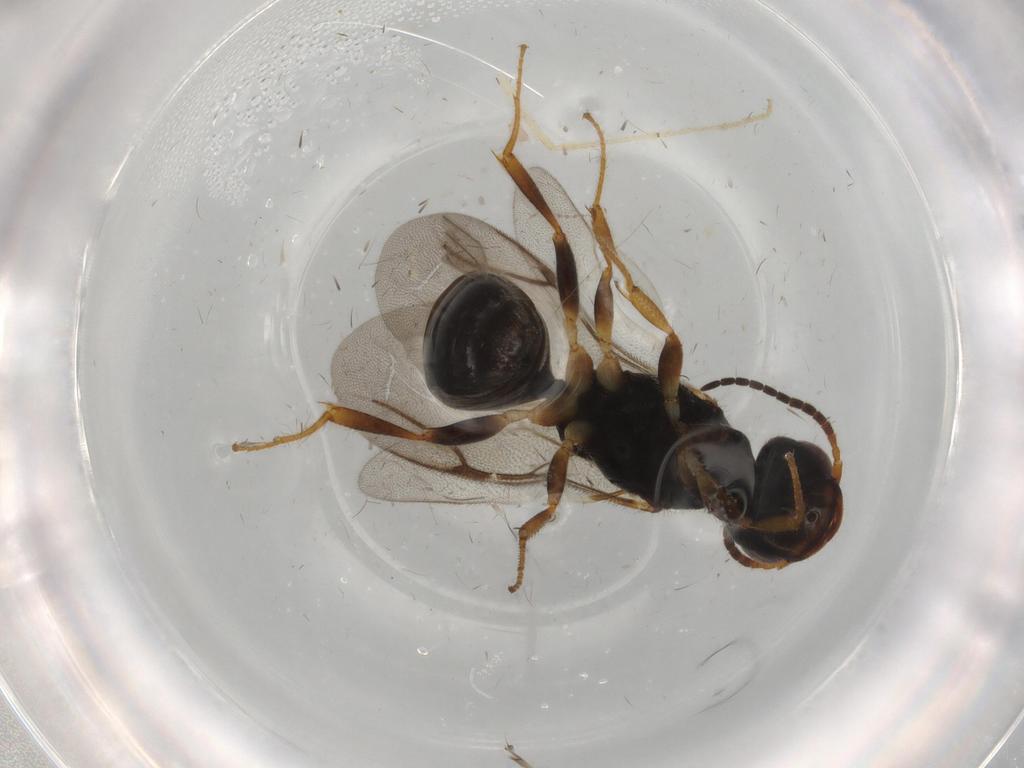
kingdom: Animalia
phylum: Arthropoda
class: Insecta
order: Hymenoptera
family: Bethylidae
